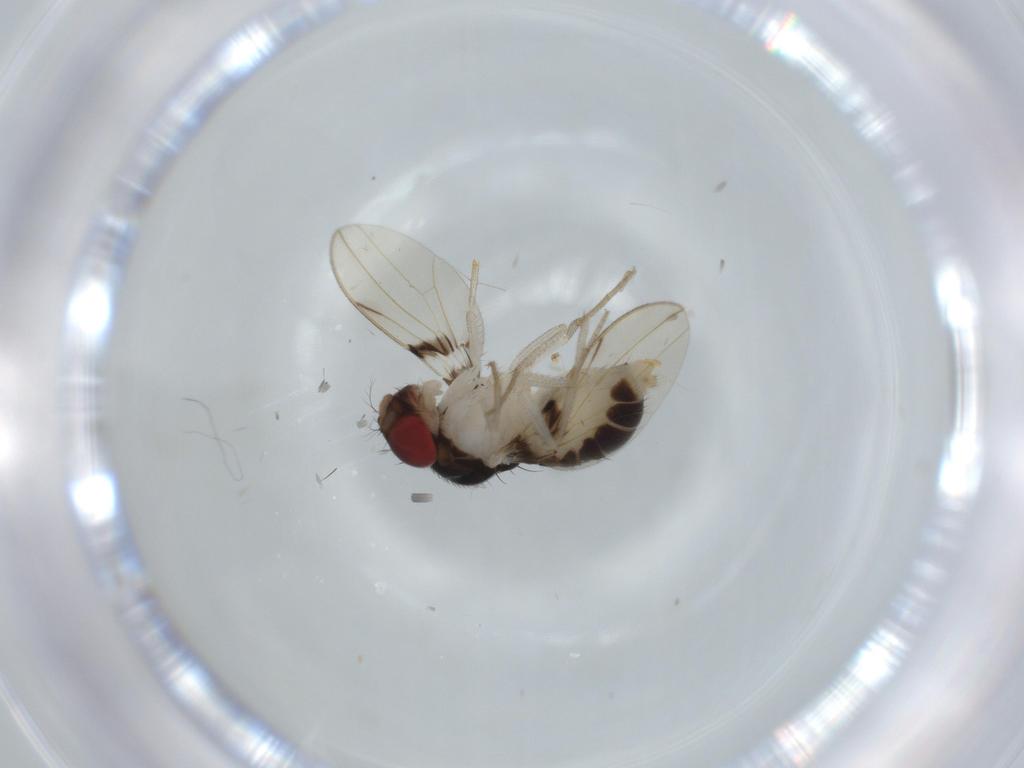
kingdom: Animalia
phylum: Arthropoda
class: Insecta
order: Diptera
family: Drosophilidae
